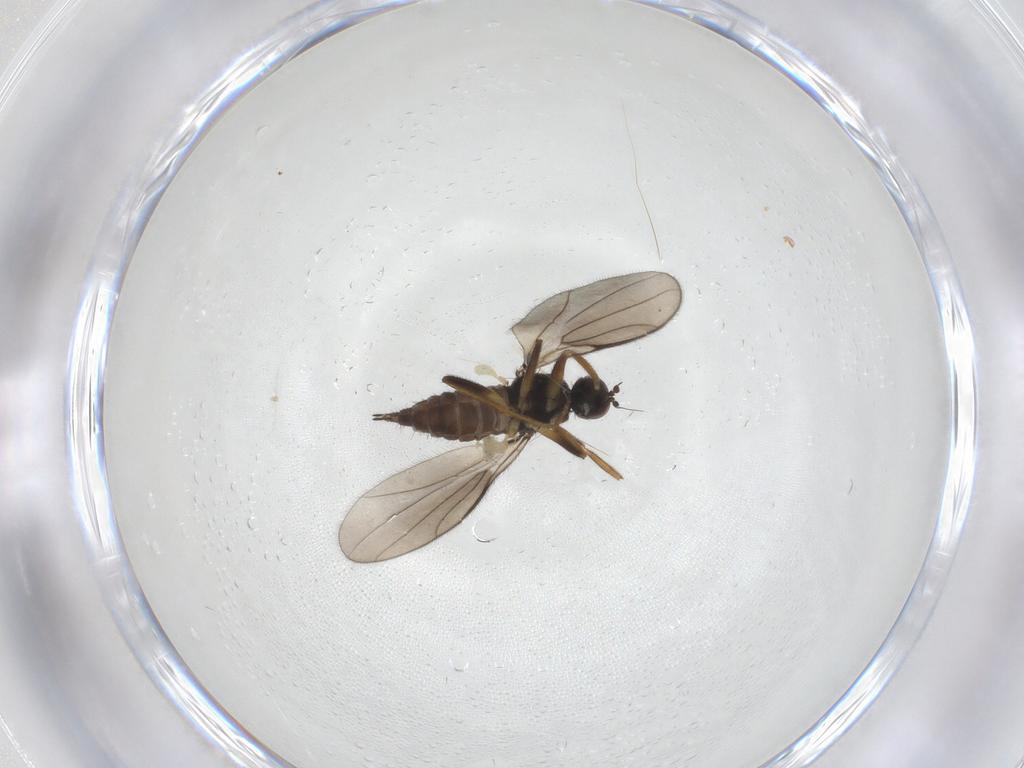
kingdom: Animalia
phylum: Arthropoda
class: Insecta
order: Diptera
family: Hybotidae
